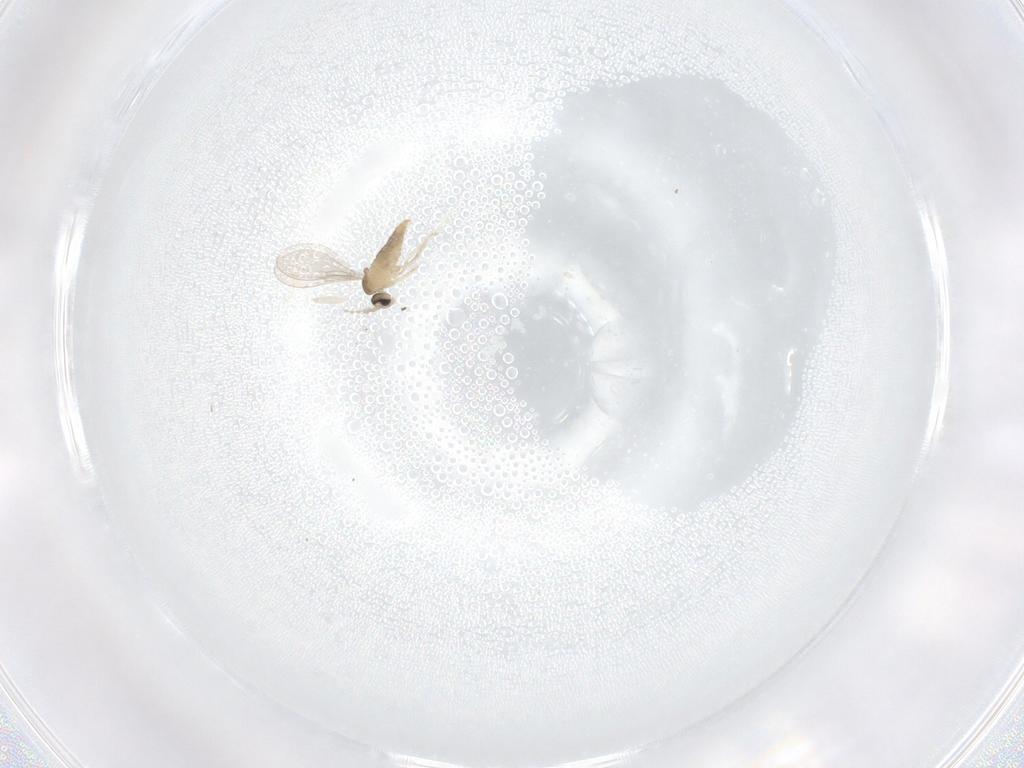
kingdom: Animalia
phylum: Arthropoda
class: Insecta
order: Diptera
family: Cecidomyiidae
